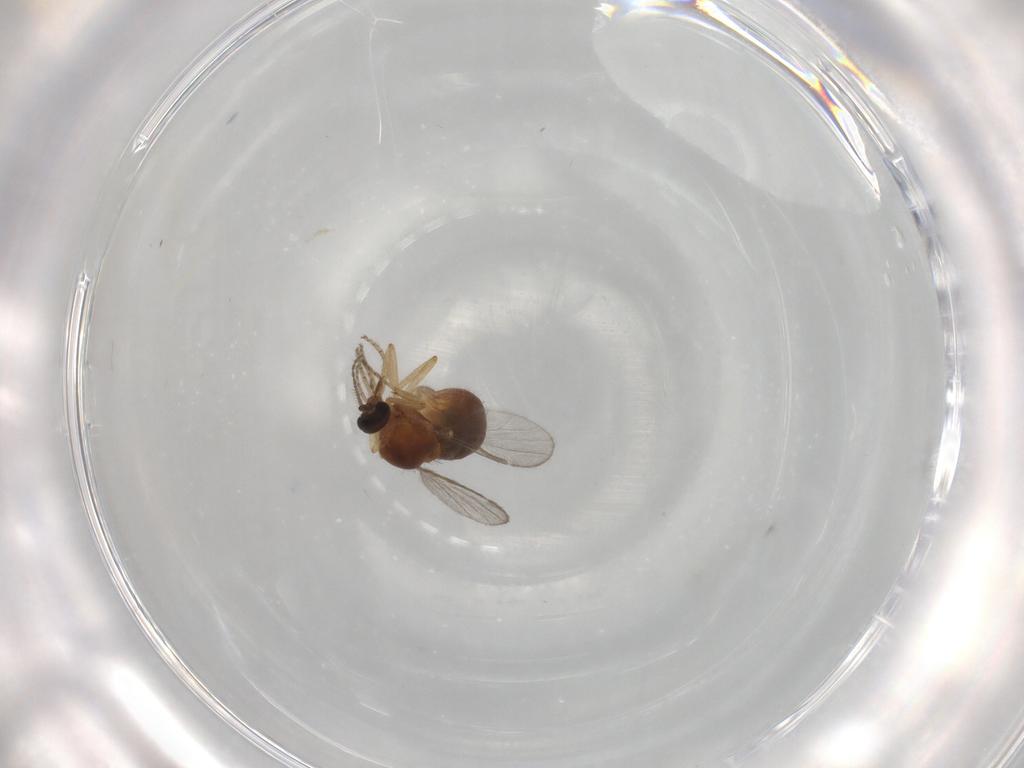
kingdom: Animalia
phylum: Arthropoda
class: Insecta
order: Diptera
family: Ceratopogonidae
